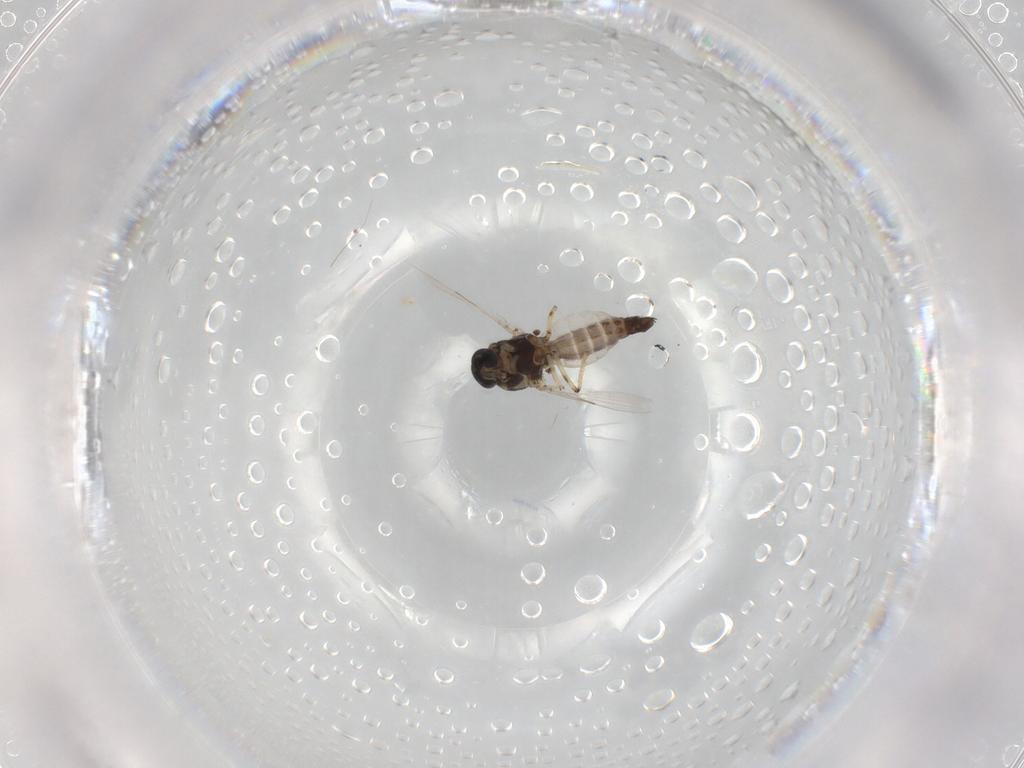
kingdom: Animalia
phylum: Arthropoda
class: Insecta
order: Diptera
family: Ceratopogonidae
